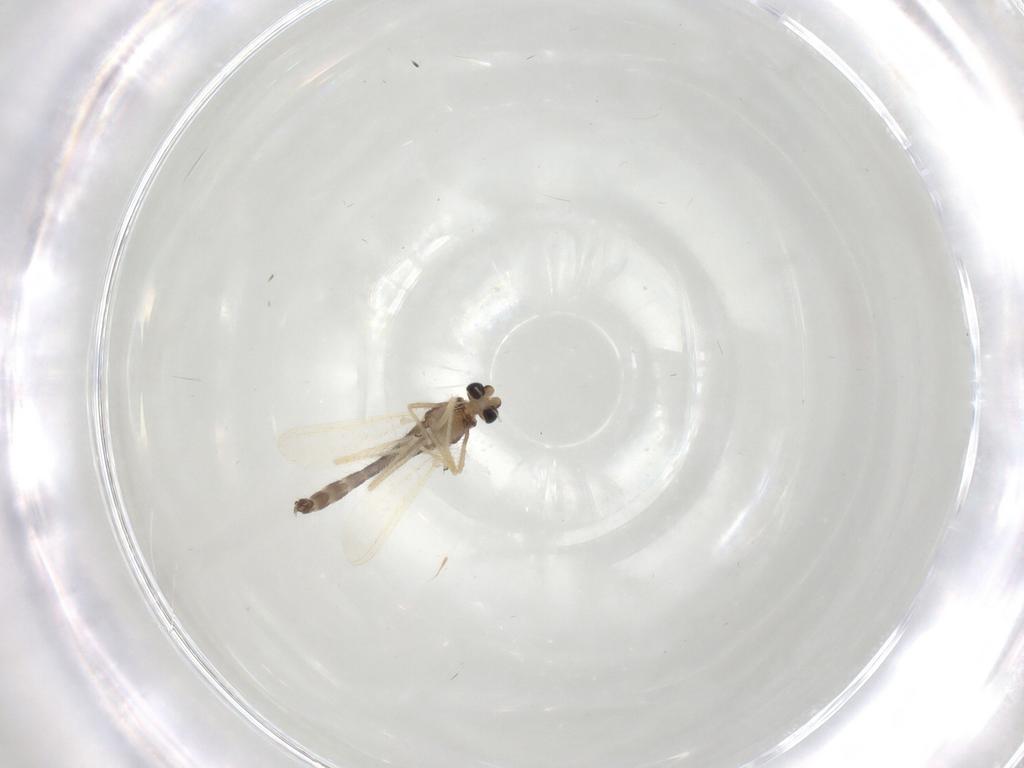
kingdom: Animalia
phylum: Arthropoda
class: Insecta
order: Diptera
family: Chironomidae
